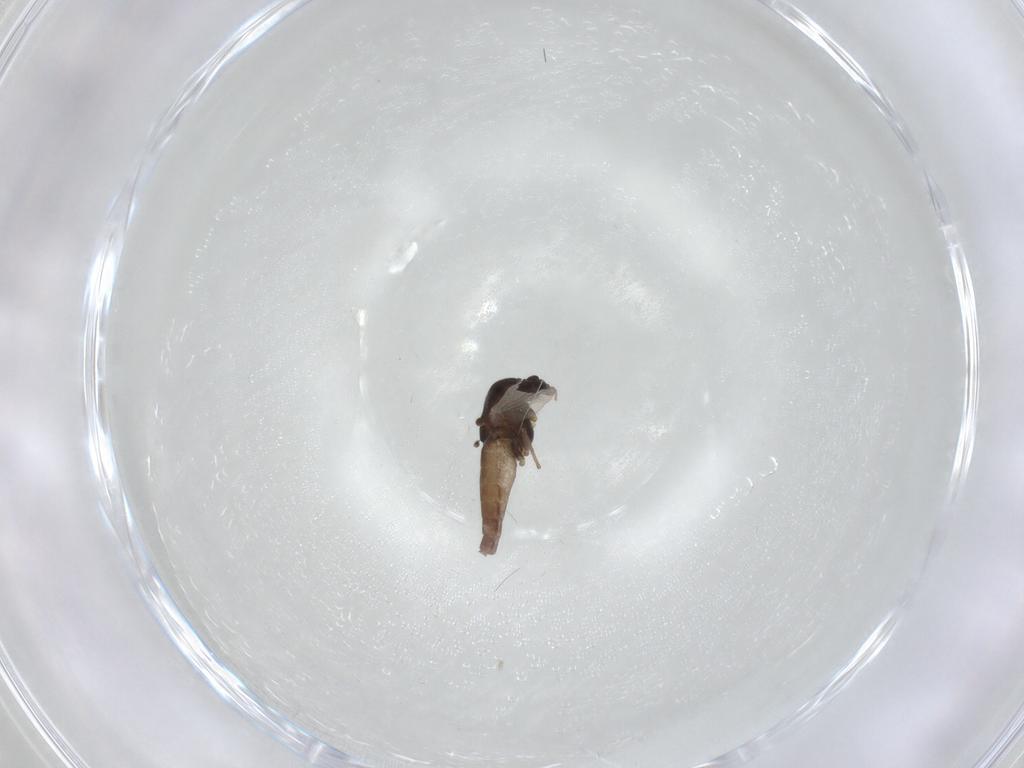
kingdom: Animalia
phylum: Arthropoda
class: Insecta
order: Diptera
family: Chironomidae
